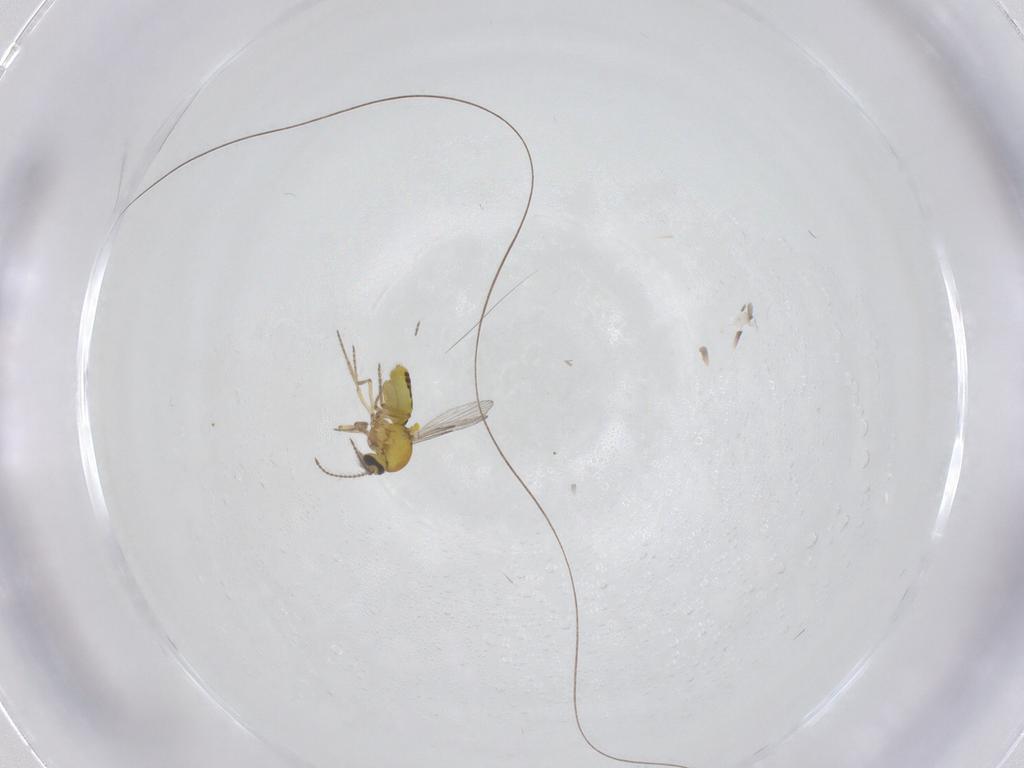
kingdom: Animalia
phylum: Arthropoda
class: Insecta
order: Diptera
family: Ceratopogonidae
